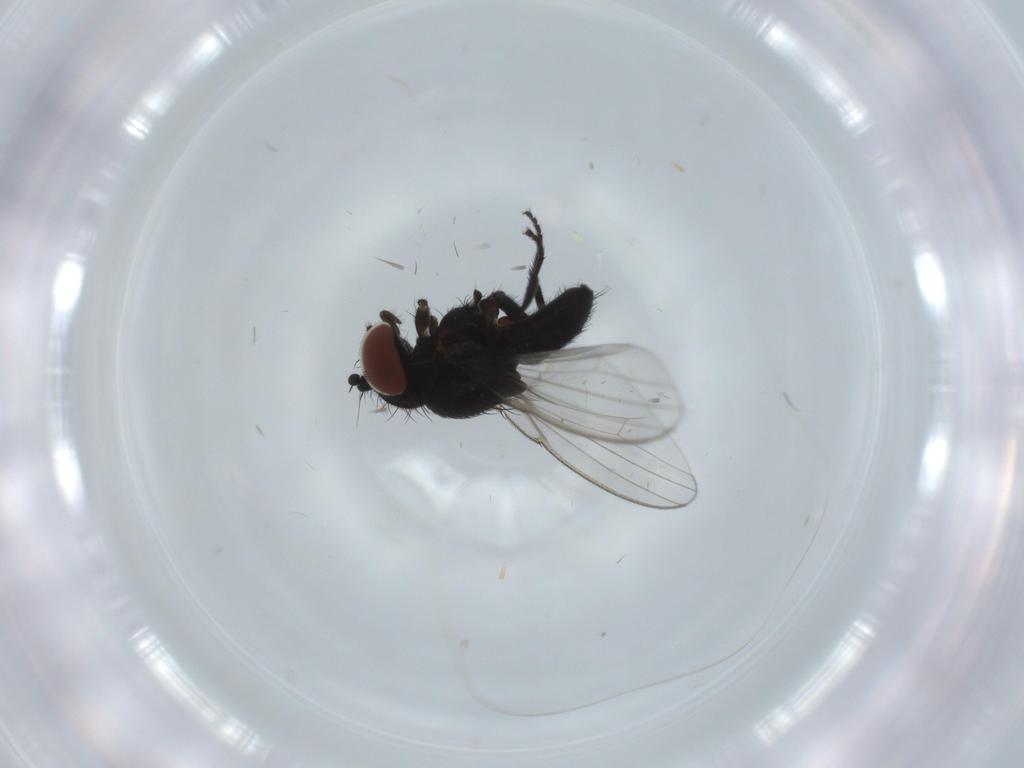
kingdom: Animalia
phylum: Arthropoda
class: Insecta
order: Diptera
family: Milichiidae
